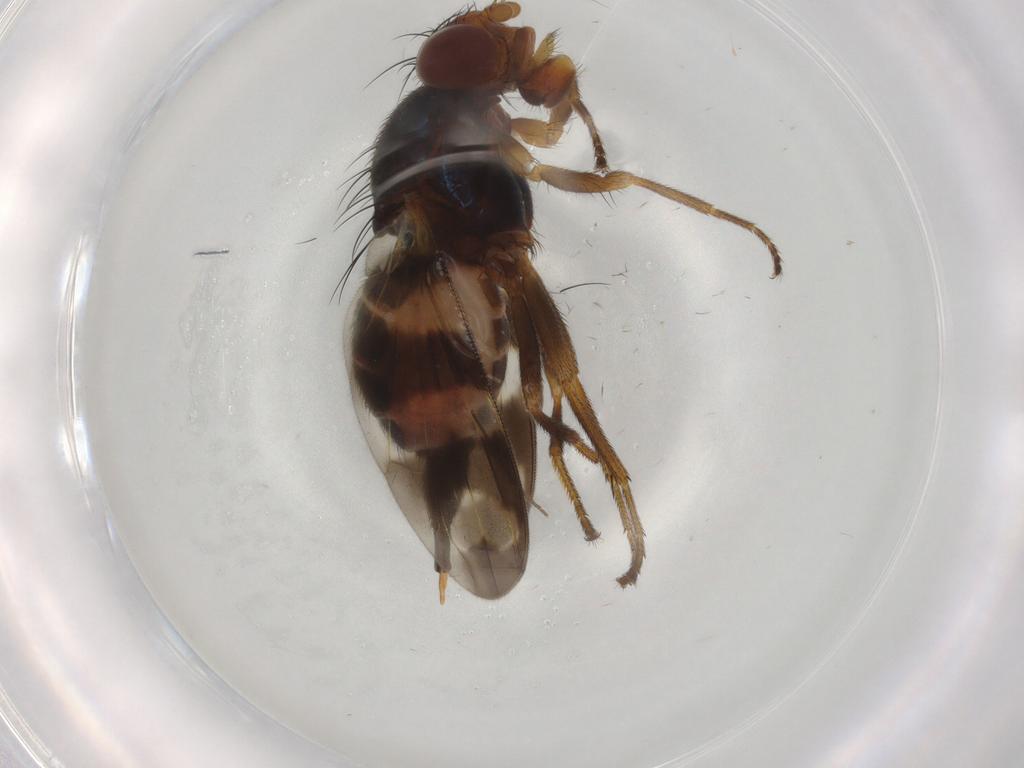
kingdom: Animalia
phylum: Arthropoda
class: Insecta
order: Diptera
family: Ulidiidae
